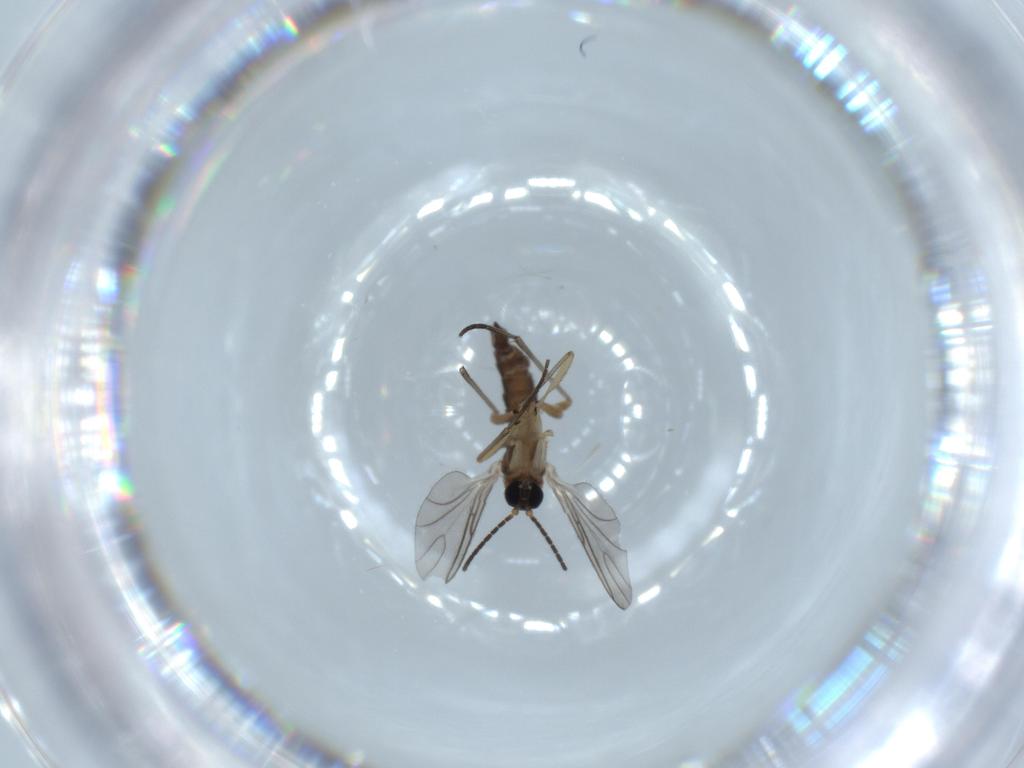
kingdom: Animalia
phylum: Arthropoda
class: Insecta
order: Diptera
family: Sciaridae
